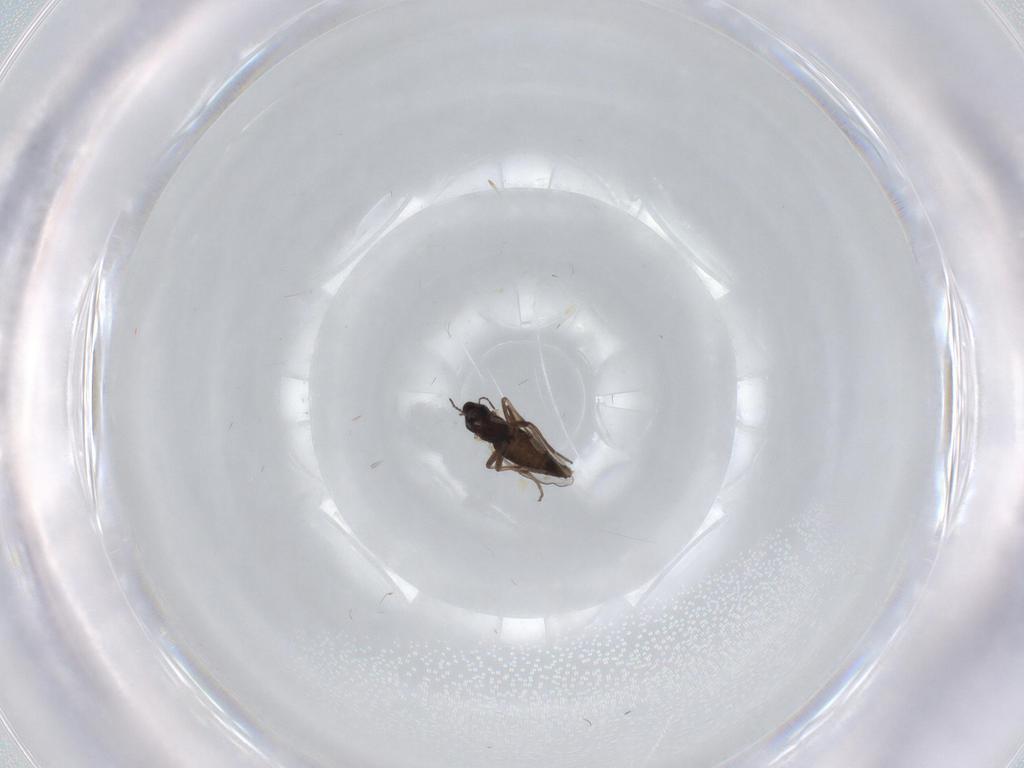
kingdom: Animalia
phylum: Arthropoda
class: Insecta
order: Diptera
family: Chironomidae
